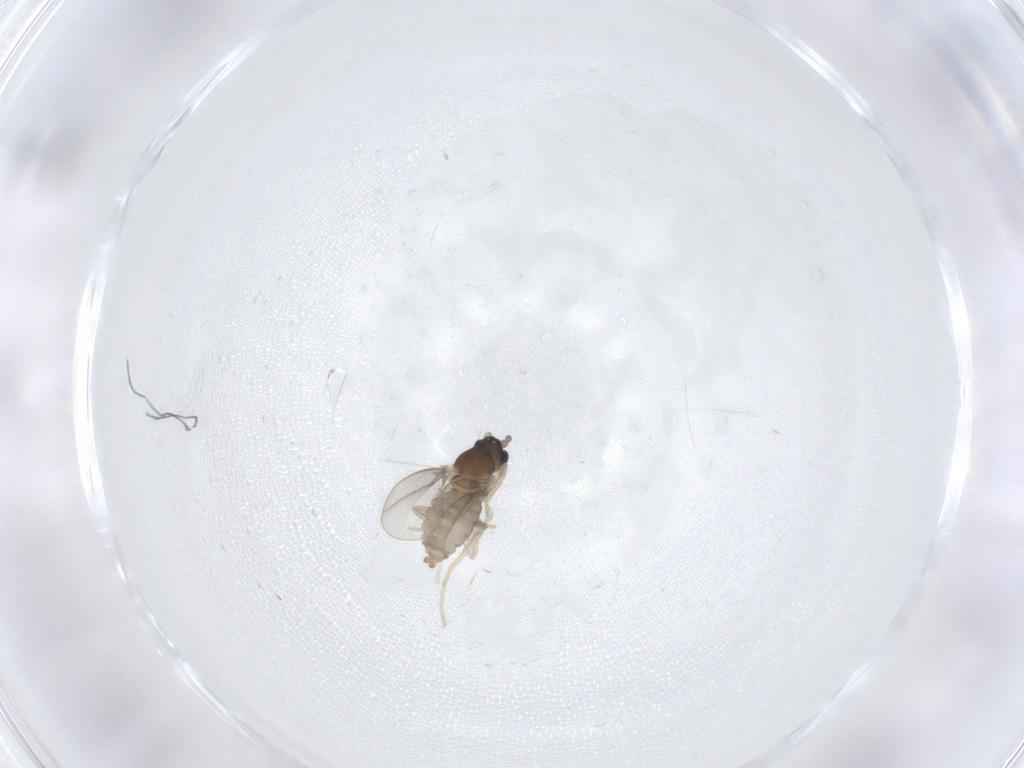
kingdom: Animalia
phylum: Arthropoda
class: Insecta
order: Diptera
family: Cecidomyiidae
